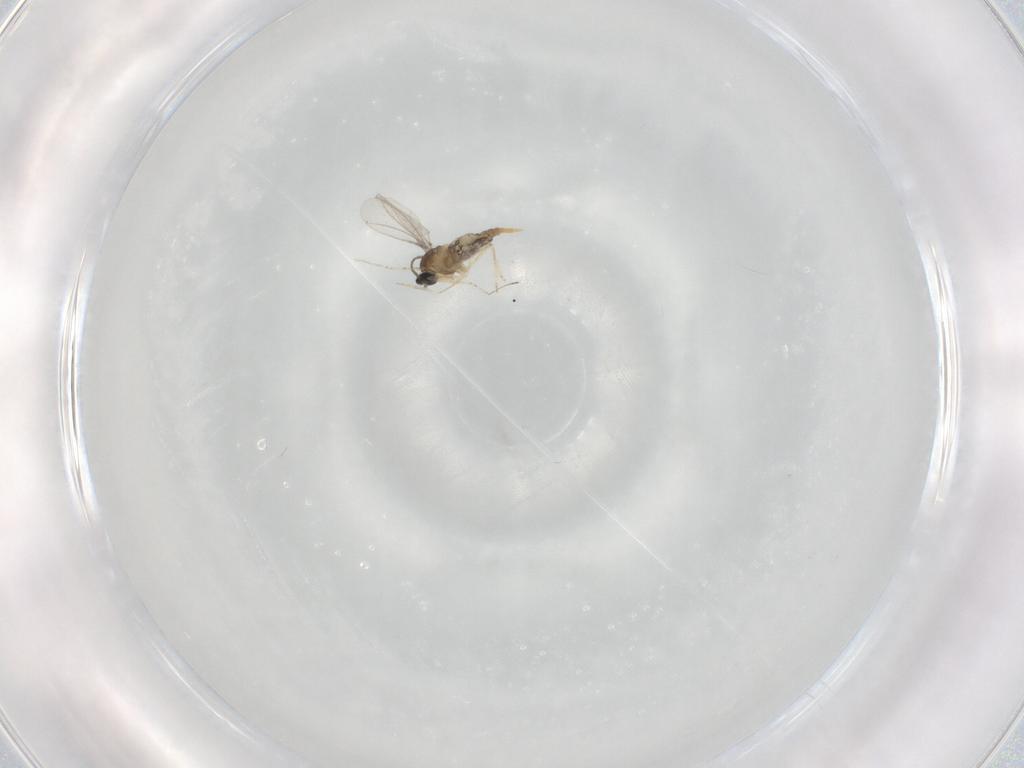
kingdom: Animalia
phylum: Arthropoda
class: Insecta
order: Diptera
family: Cecidomyiidae
